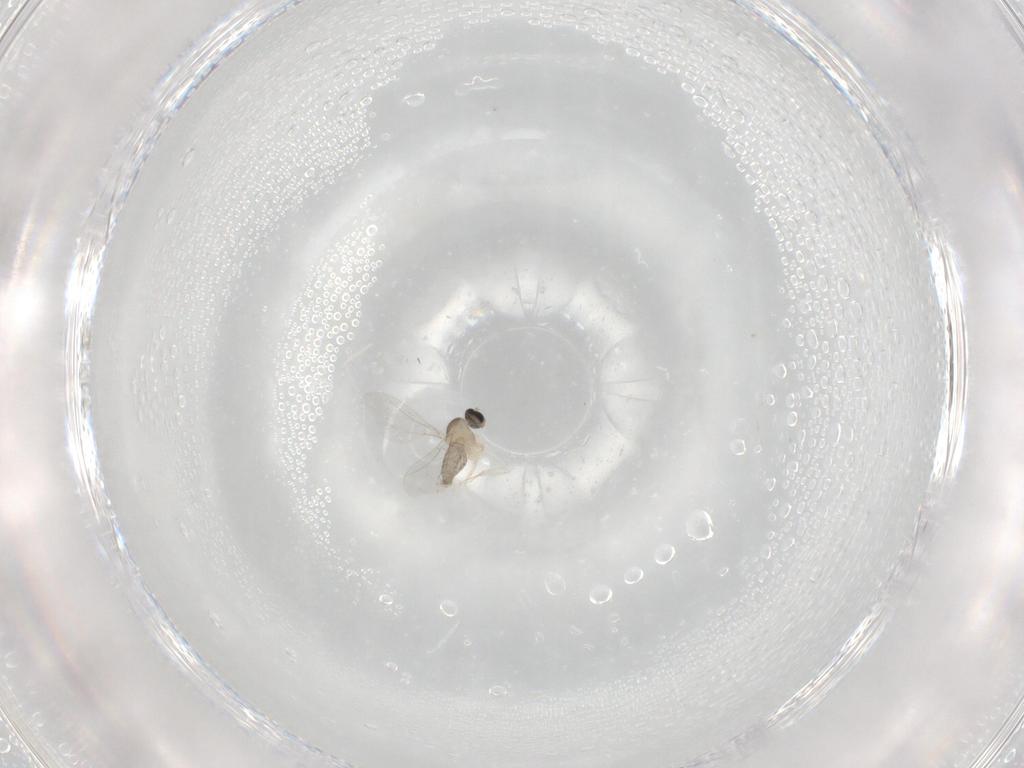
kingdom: Animalia
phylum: Arthropoda
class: Insecta
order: Diptera
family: Cecidomyiidae
